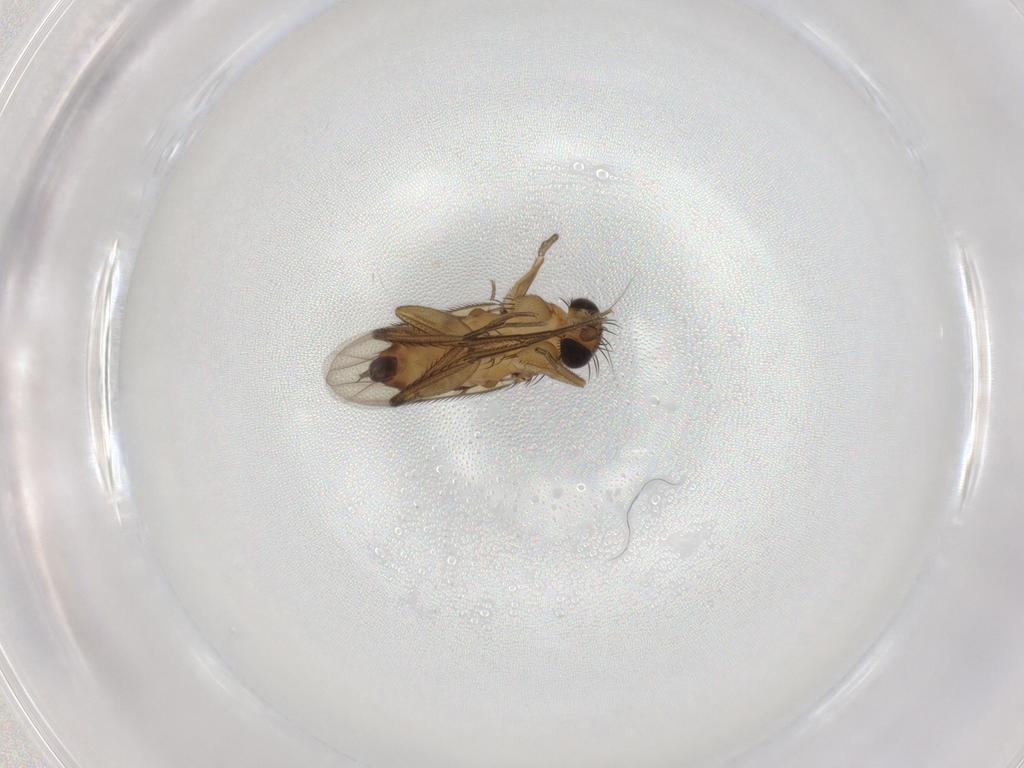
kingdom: Animalia
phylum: Arthropoda
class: Insecta
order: Diptera
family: Phoridae
